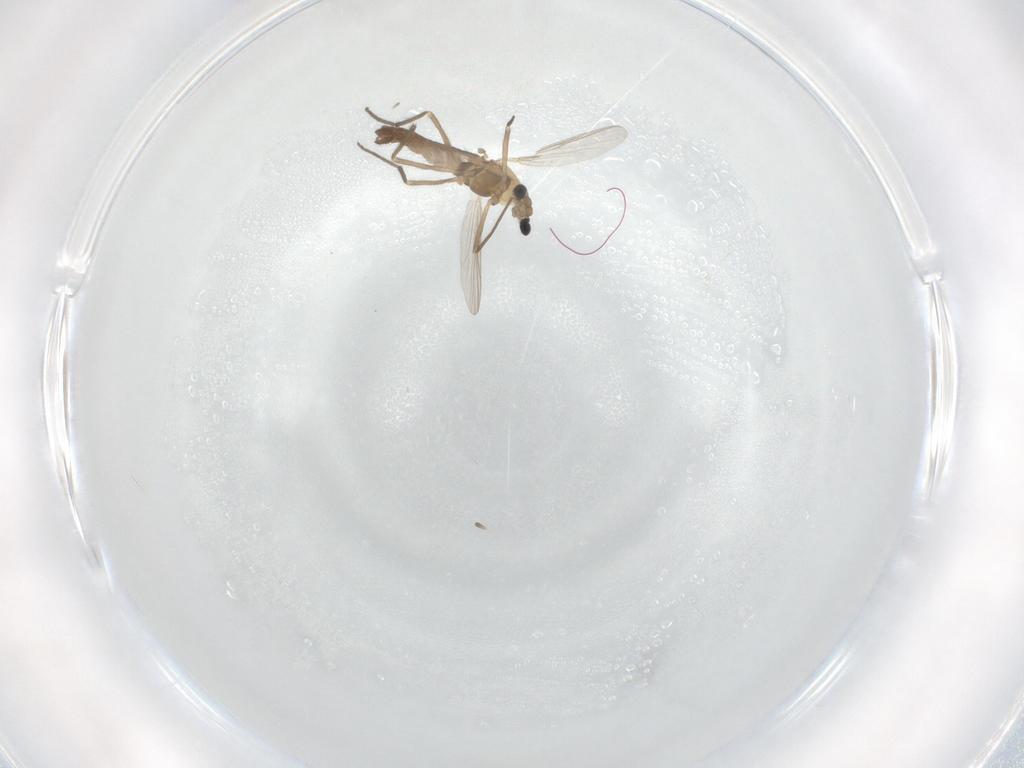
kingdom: Animalia
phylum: Arthropoda
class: Insecta
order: Diptera
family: Chironomidae
